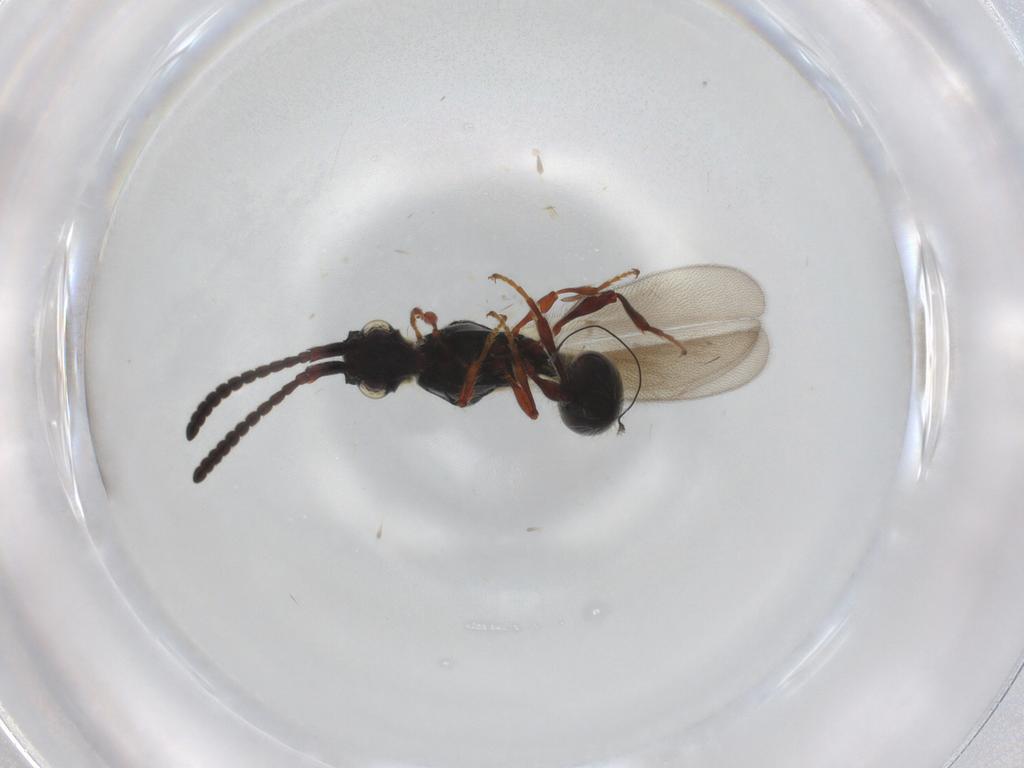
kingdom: Animalia
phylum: Arthropoda
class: Insecta
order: Hymenoptera
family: Diapriidae
